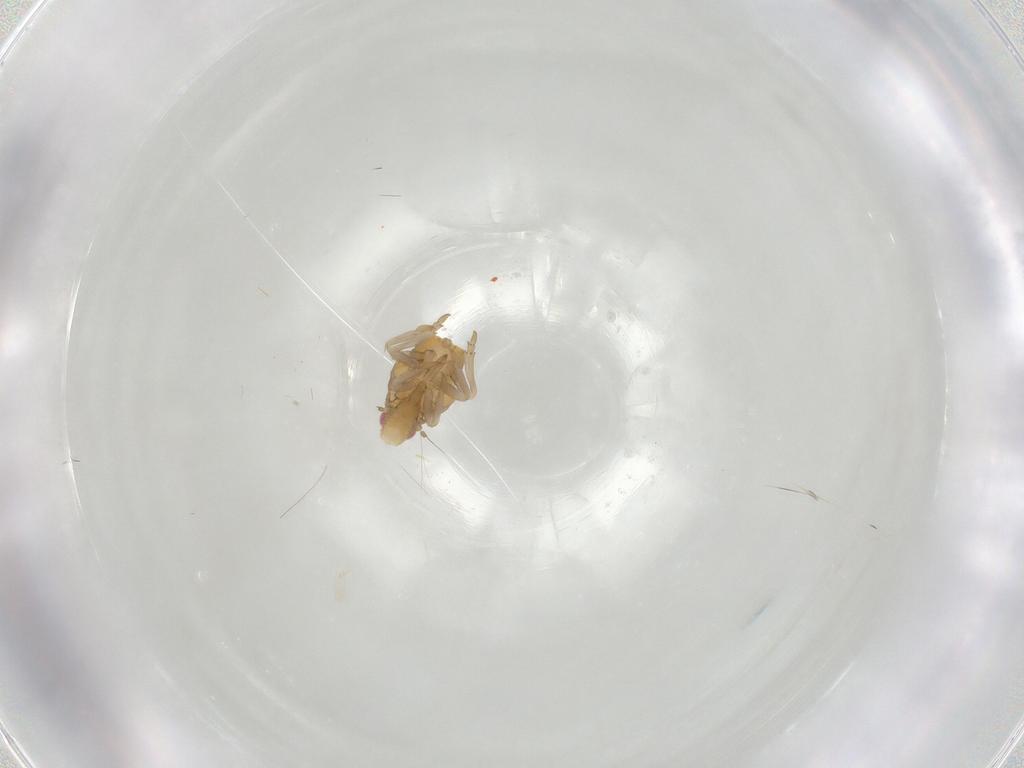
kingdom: Animalia
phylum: Arthropoda
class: Insecta
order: Hemiptera
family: Flatidae
